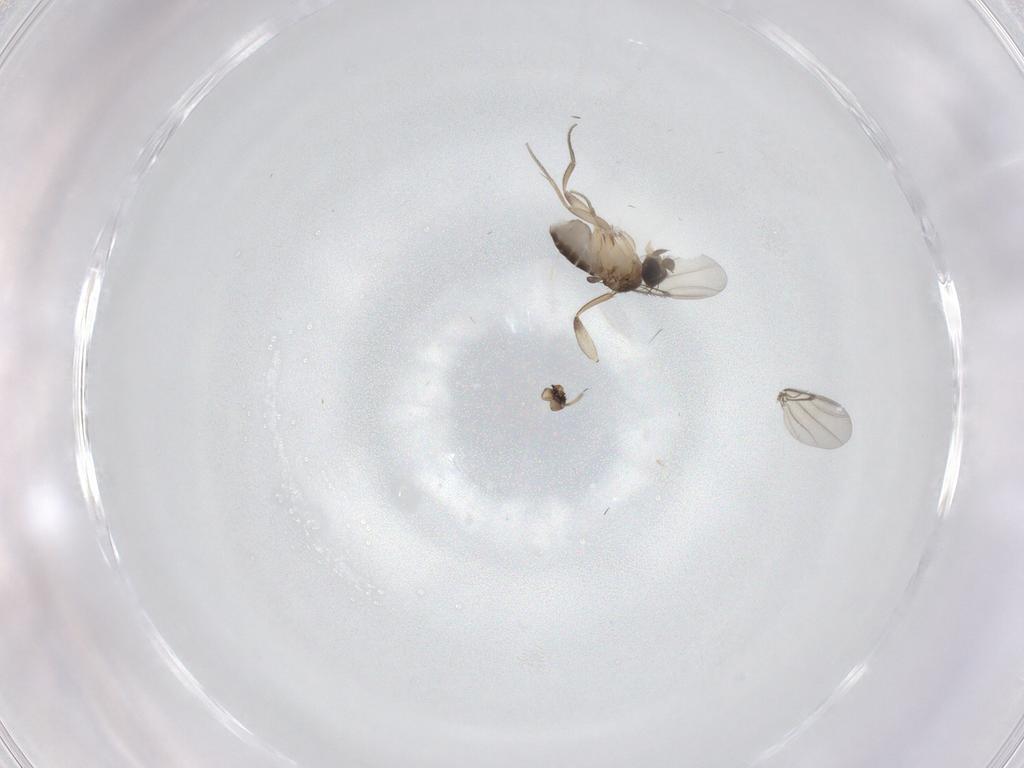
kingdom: Animalia
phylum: Arthropoda
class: Insecta
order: Diptera
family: Phoridae
